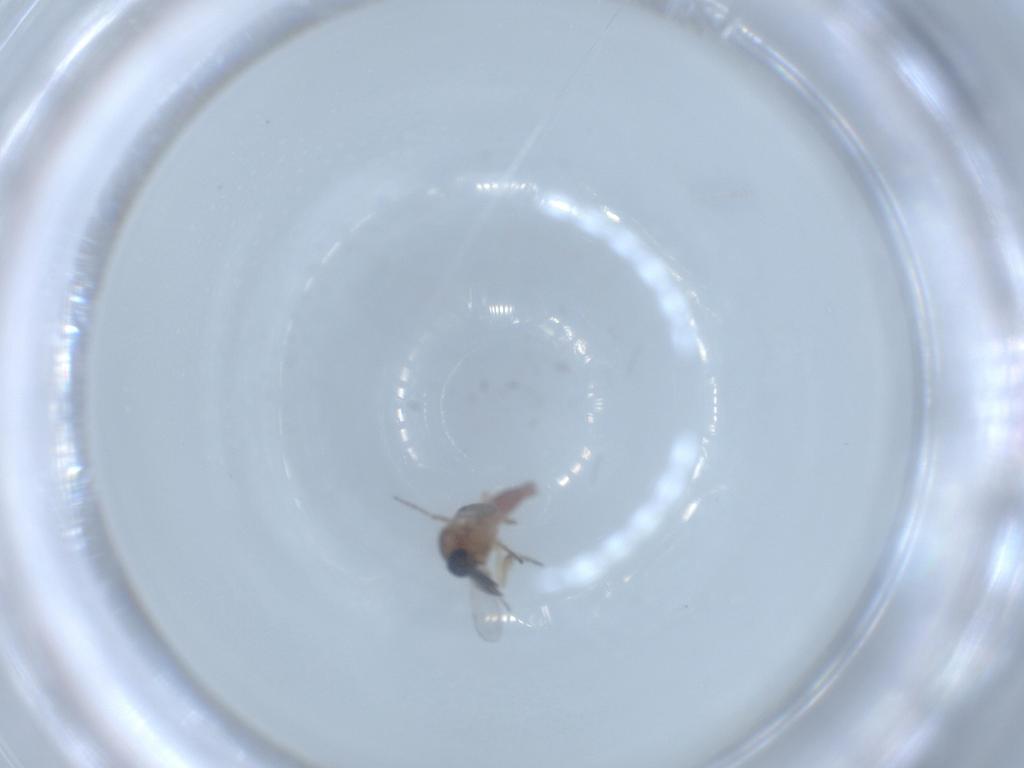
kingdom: Animalia
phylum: Arthropoda
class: Insecta
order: Diptera
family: Ceratopogonidae
